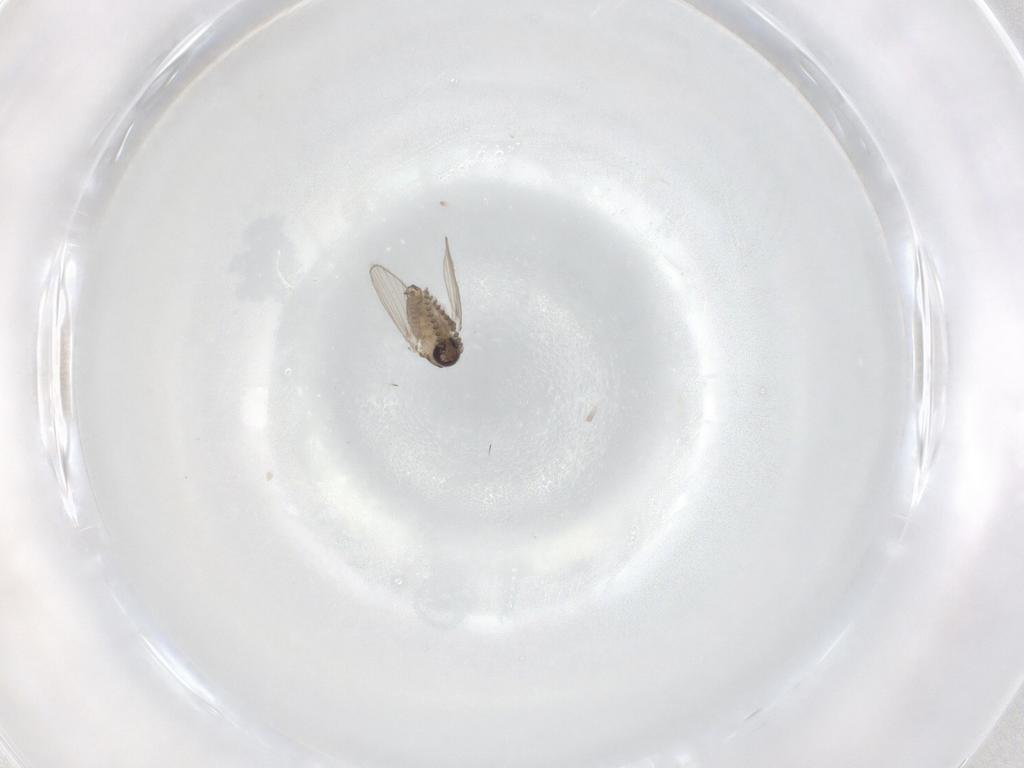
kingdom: Animalia
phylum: Arthropoda
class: Insecta
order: Diptera
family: Psychodidae
